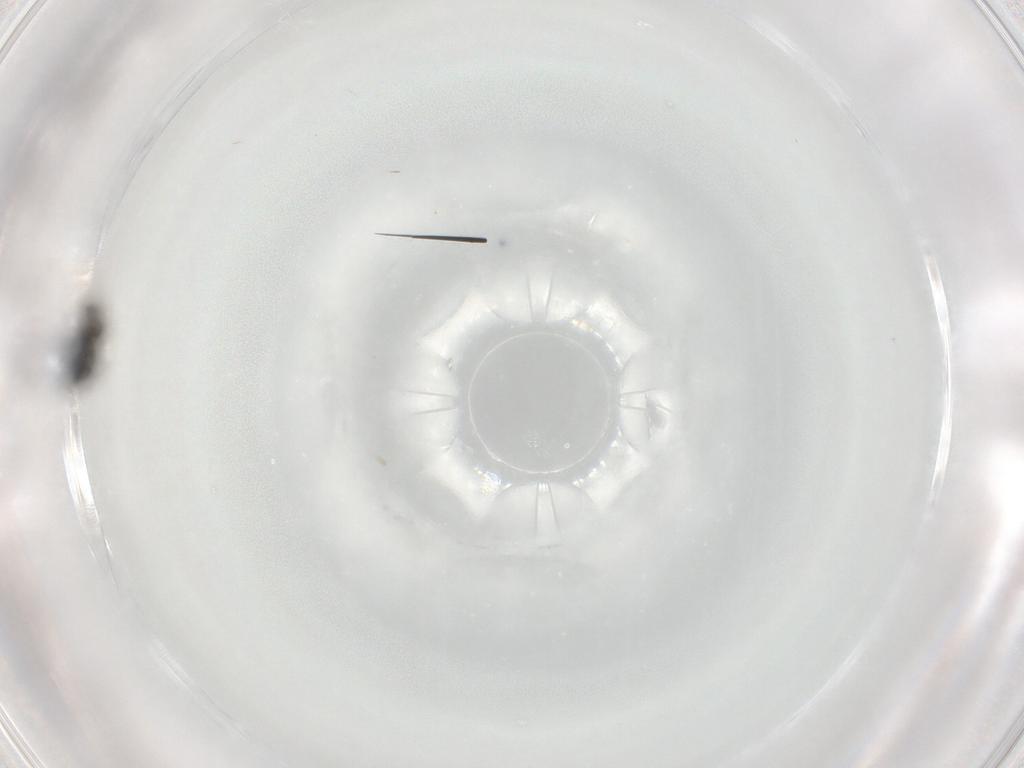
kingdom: Animalia
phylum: Arthropoda
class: Insecta
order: Hymenoptera
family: Scelionidae
